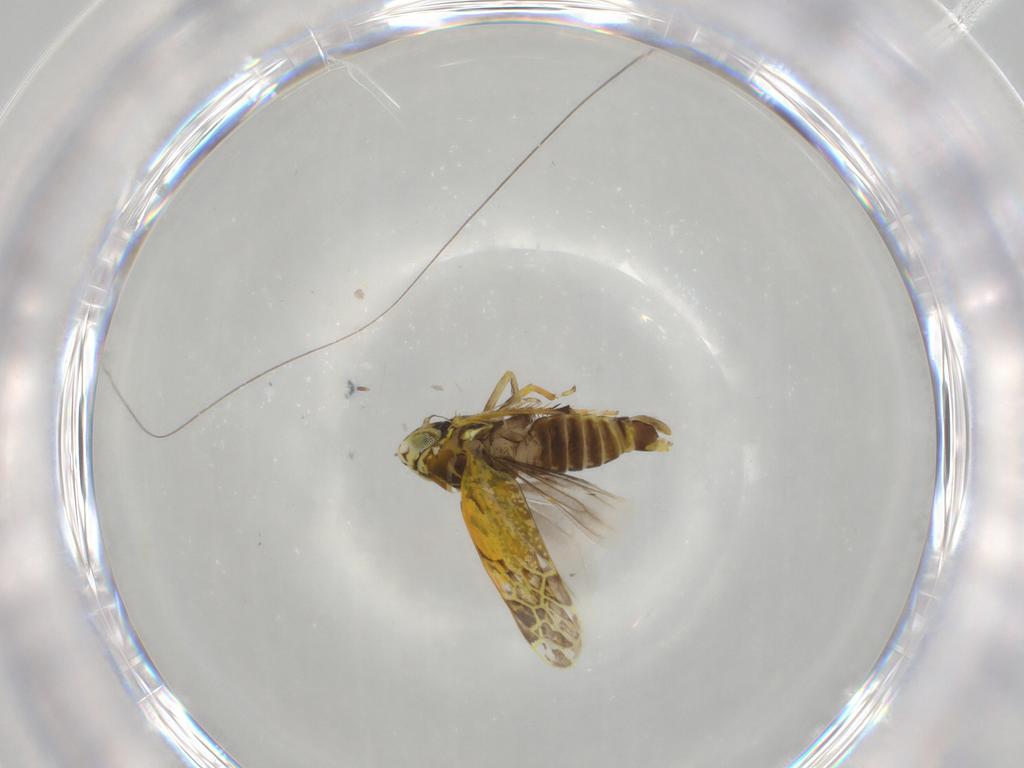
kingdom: Animalia
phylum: Arthropoda
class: Insecta
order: Hemiptera
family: Cicadellidae
